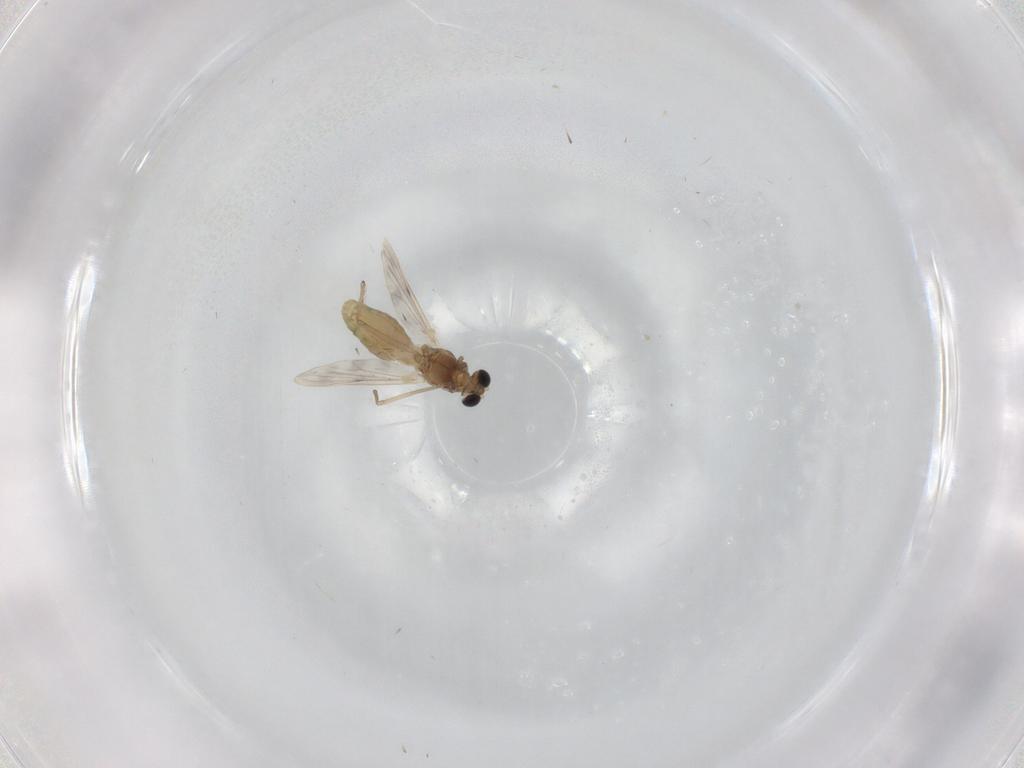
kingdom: Animalia
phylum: Arthropoda
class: Insecta
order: Diptera
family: Chironomidae
